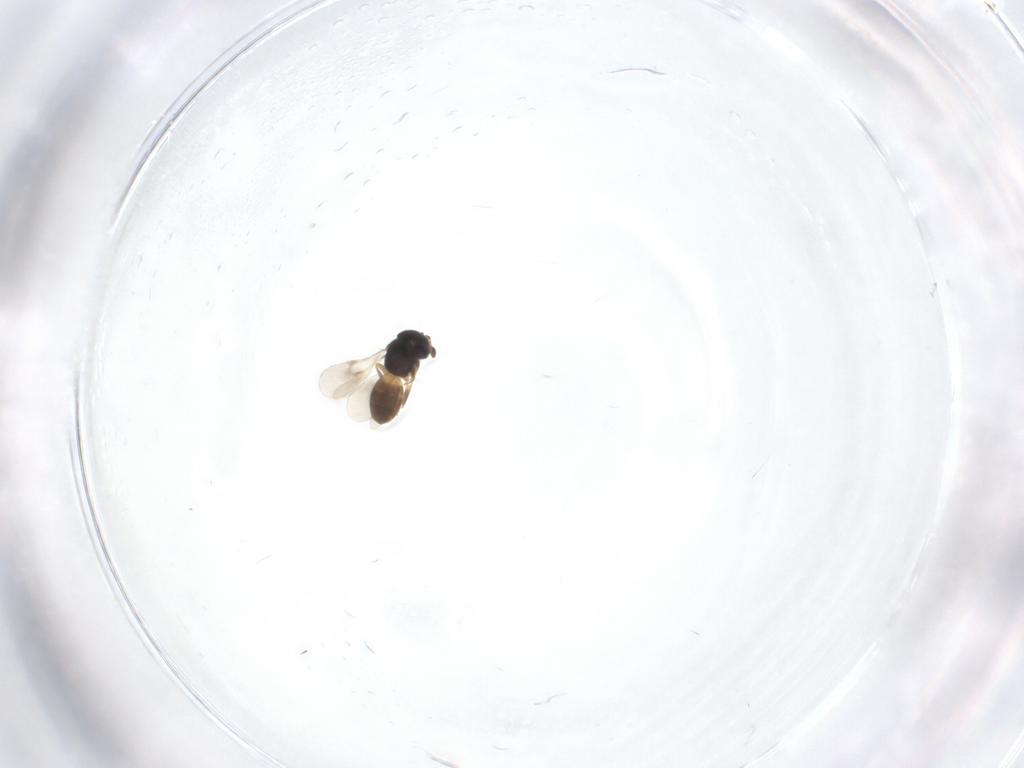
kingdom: Animalia
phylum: Arthropoda
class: Insecta
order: Hymenoptera
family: Scelionidae
